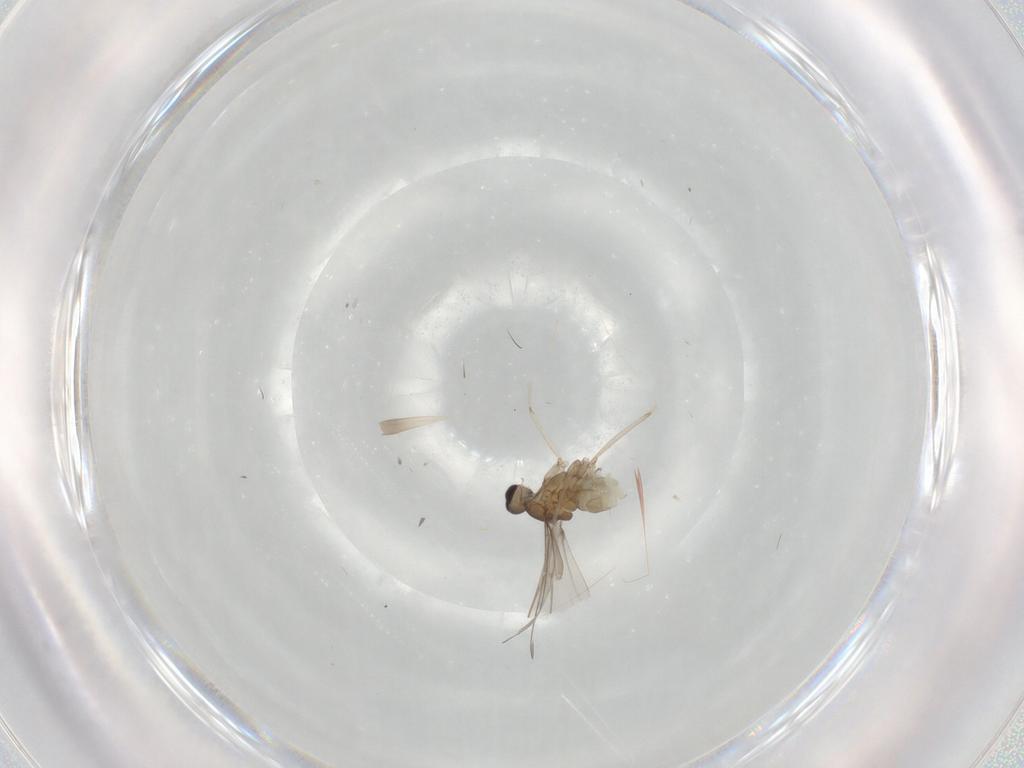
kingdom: Animalia
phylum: Arthropoda
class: Insecta
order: Diptera
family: Cecidomyiidae
